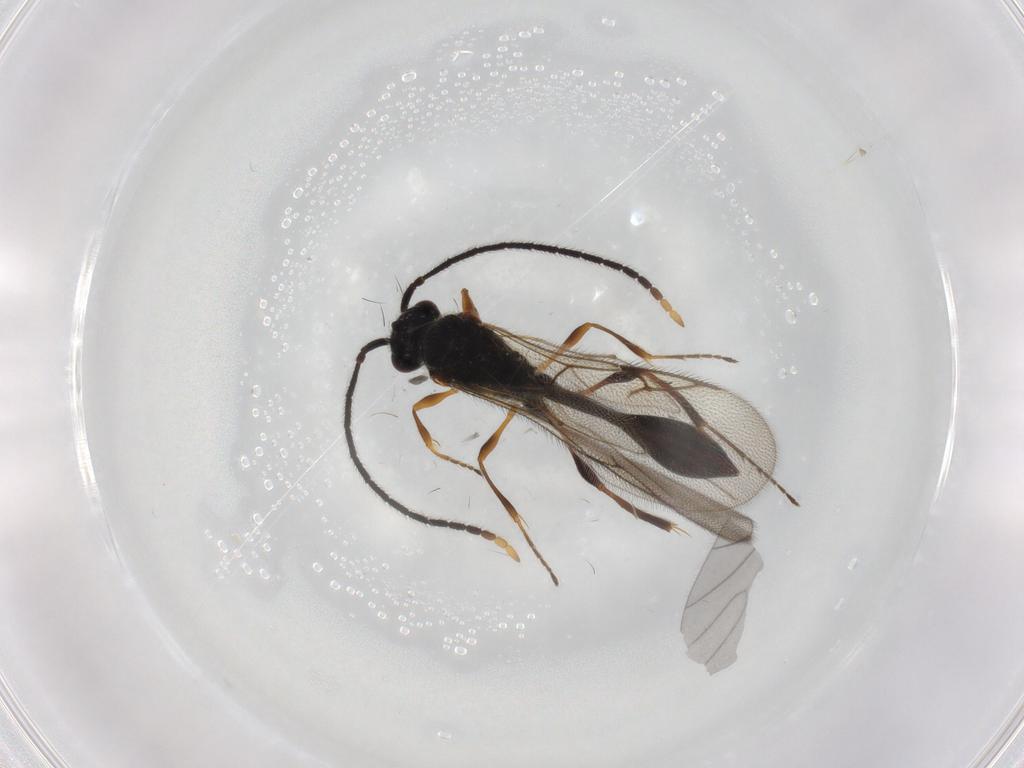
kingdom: Animalia
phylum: Arthropoda
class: Insecta
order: Hymenoptera
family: Diapriidae
